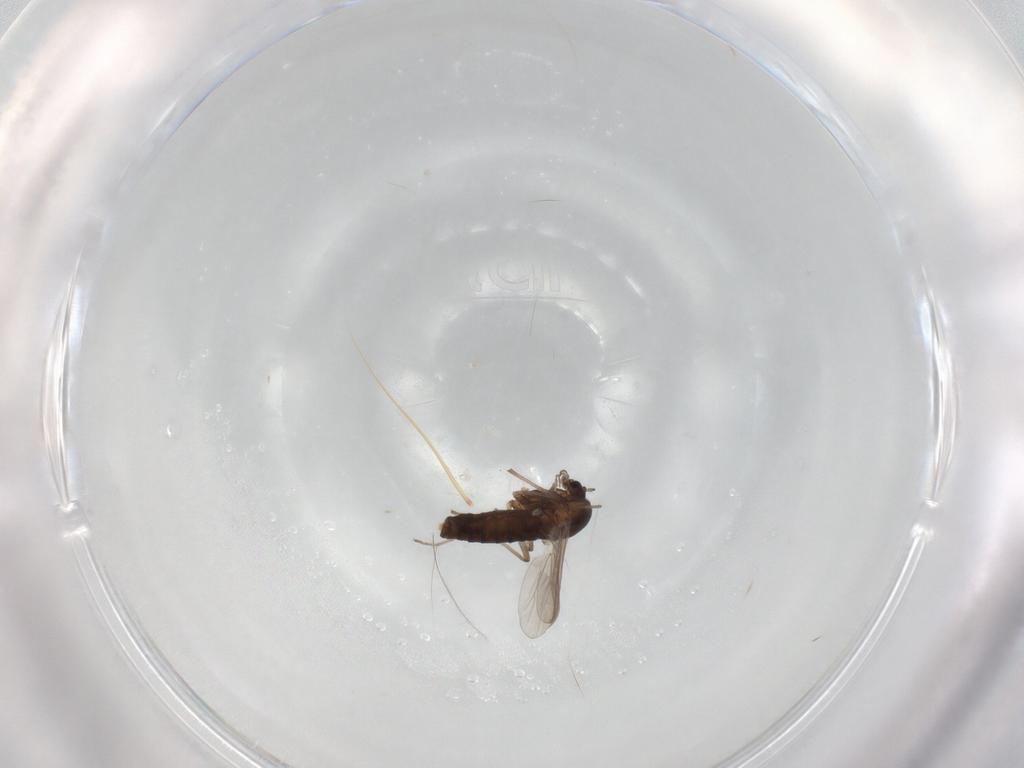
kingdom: Animalia
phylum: Arthropoda
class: Insecta
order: Diptera
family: Chironomidae
